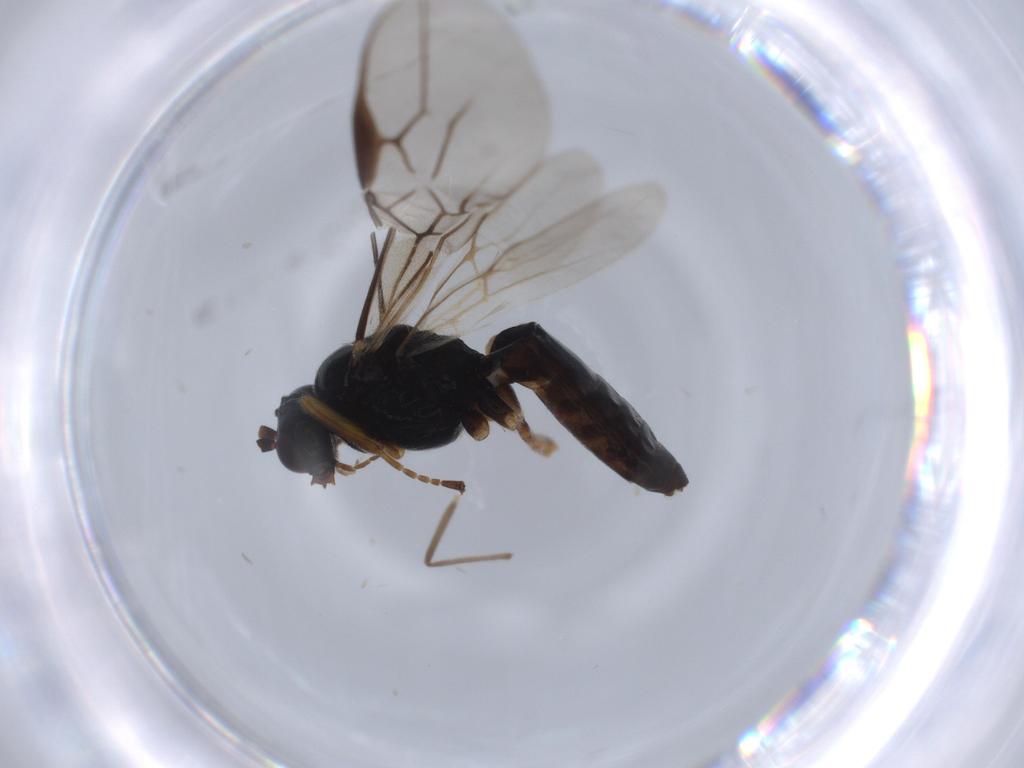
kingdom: Animalia
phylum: Arthropoda
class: Insecta
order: Hymenoptera
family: Braconidae
